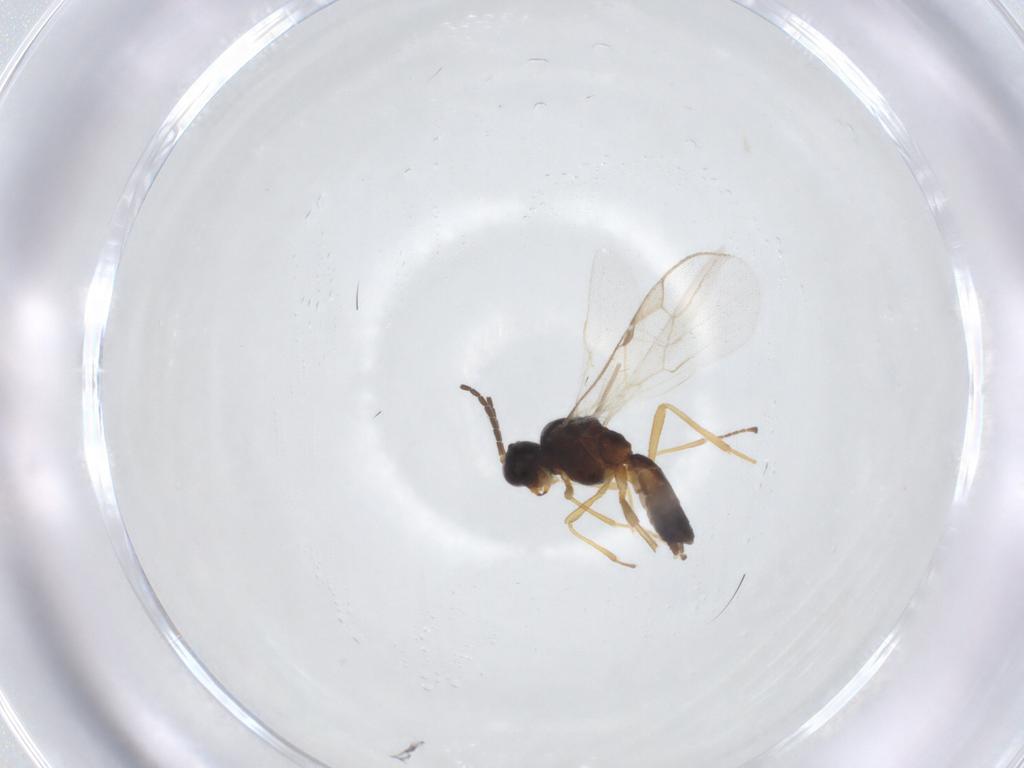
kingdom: Animalia
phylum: Arthropoda
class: Insecta
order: Hymenoptera
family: Braconidae
